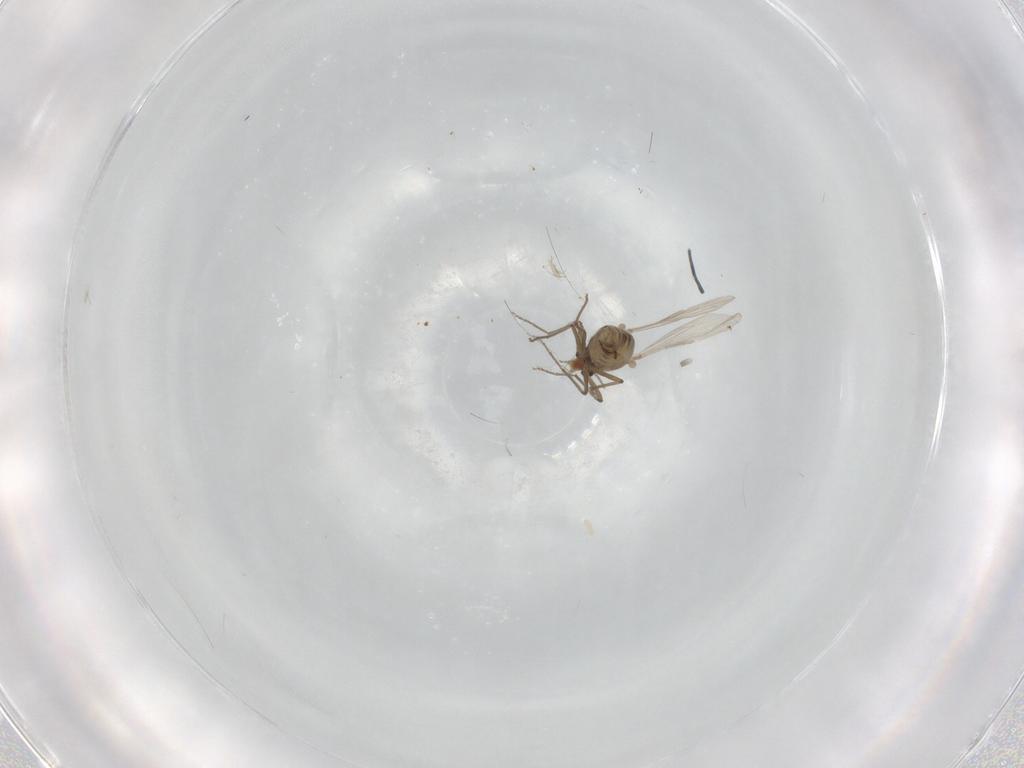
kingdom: Animalia
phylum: Arthropoda
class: Insecta
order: Diptera
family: Chironomidae
